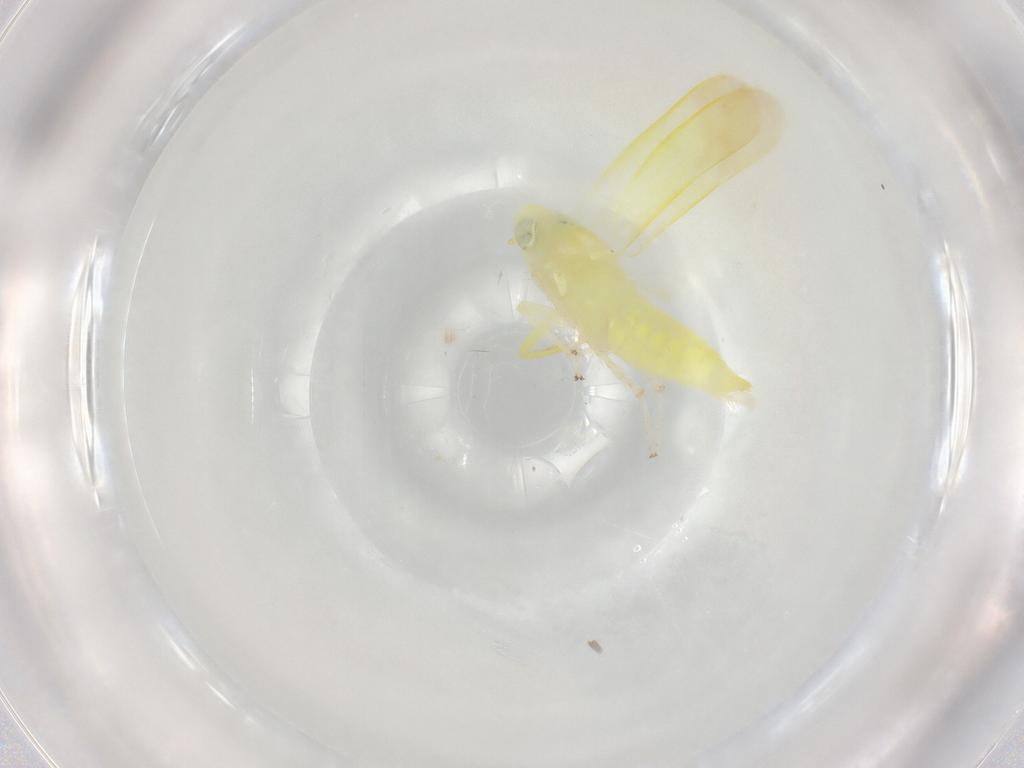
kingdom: Animalia
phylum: Arthropoda
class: Insecta
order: Hemiptera
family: Cicadellidae
